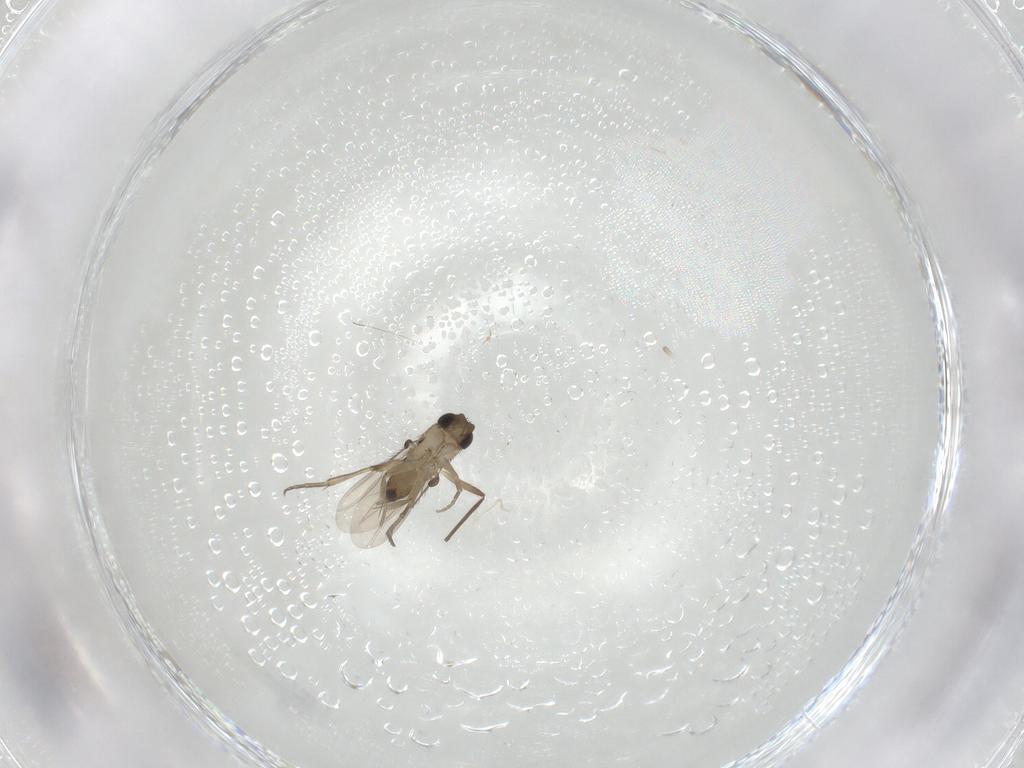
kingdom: Animalia
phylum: Arthropoda
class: Insecta
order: Diptera
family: Phoridae
